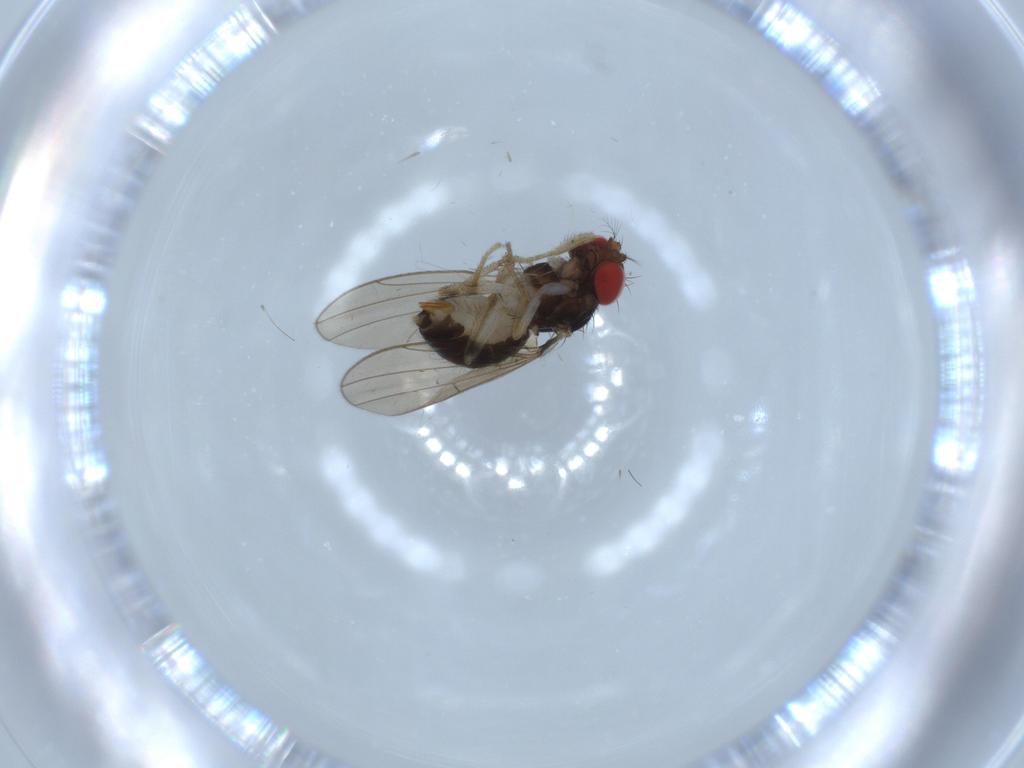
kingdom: Animalia
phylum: Arthropoda
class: Insecta
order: Diptera
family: Drosophilidae
